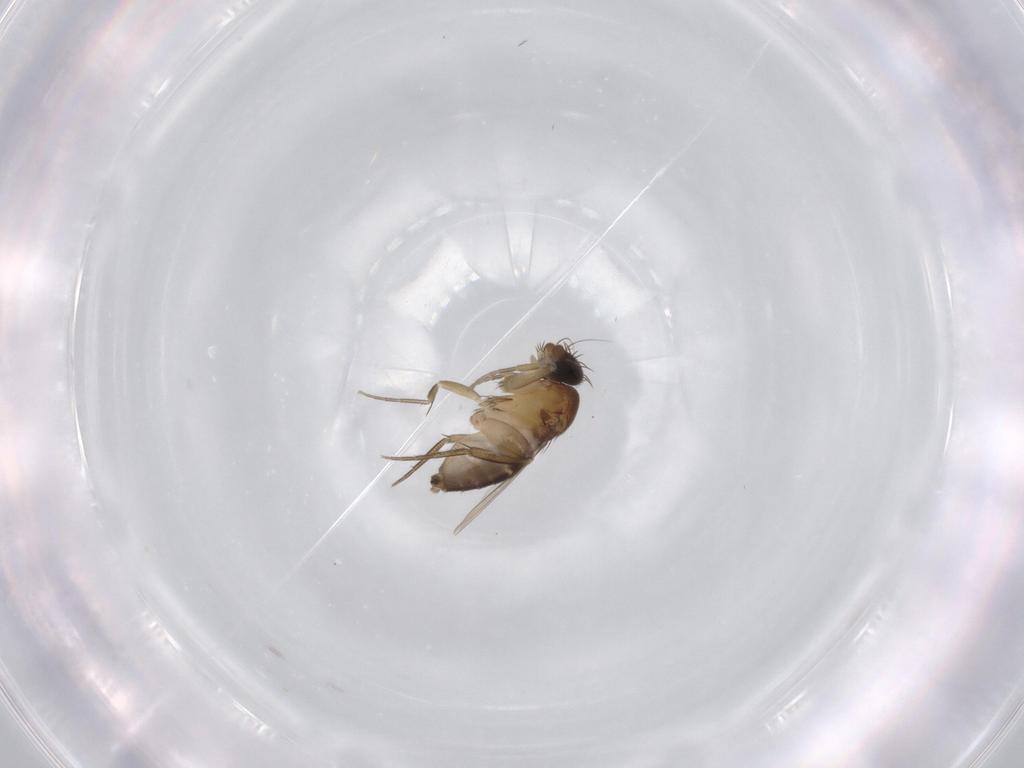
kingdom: Animalia
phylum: Arthropoda
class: Insecta
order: Diptera
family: Phoridae
